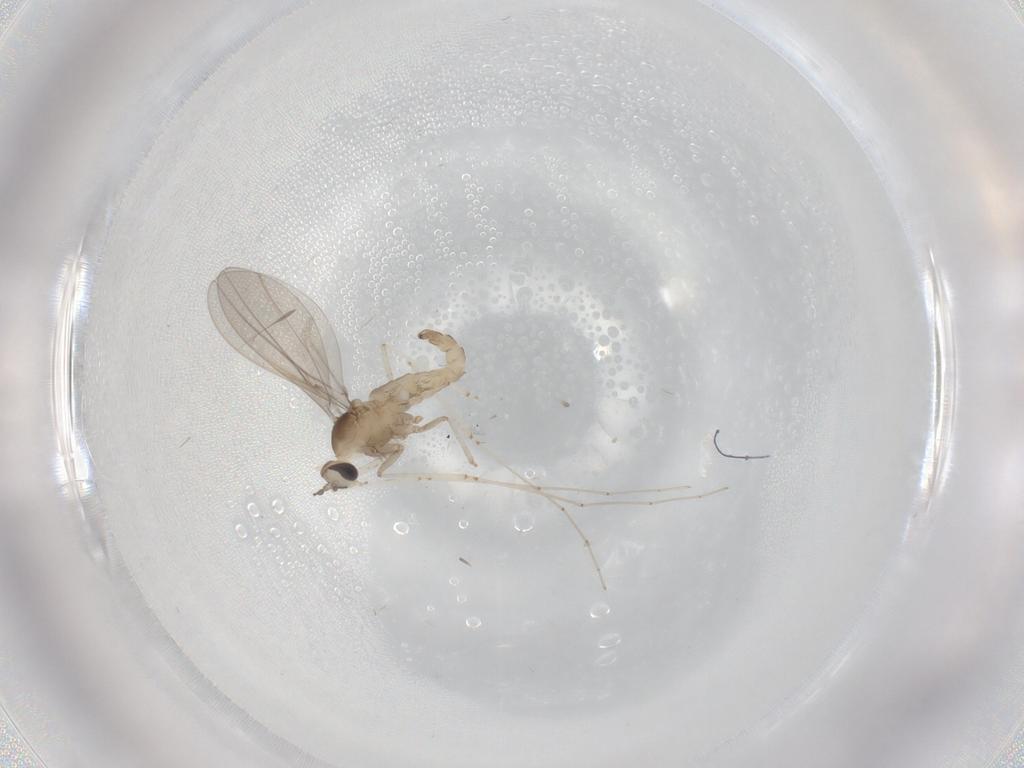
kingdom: Animalia
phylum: Arthropoda
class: Insecta
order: Diptera
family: Cecidomyiidae
